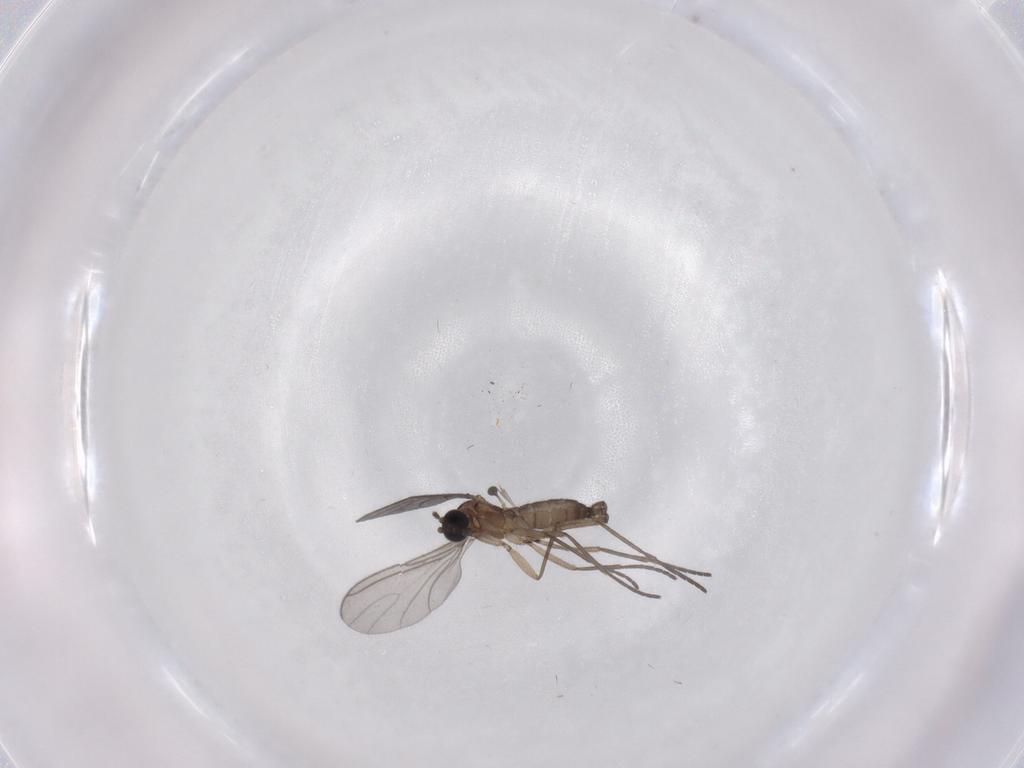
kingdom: Animalia
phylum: Arthropoda
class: Insecta
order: Diptera
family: Sciaridae
